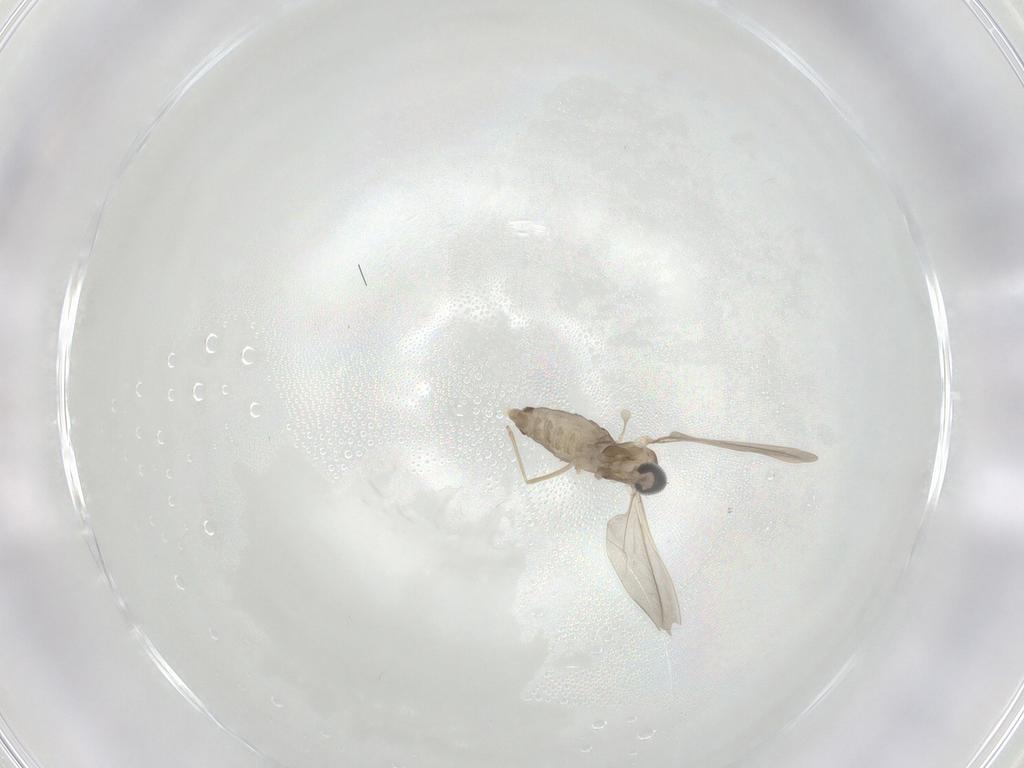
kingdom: Animalia
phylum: Arthropoda
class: Insecta
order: Diptera
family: Cecidomyiidae
